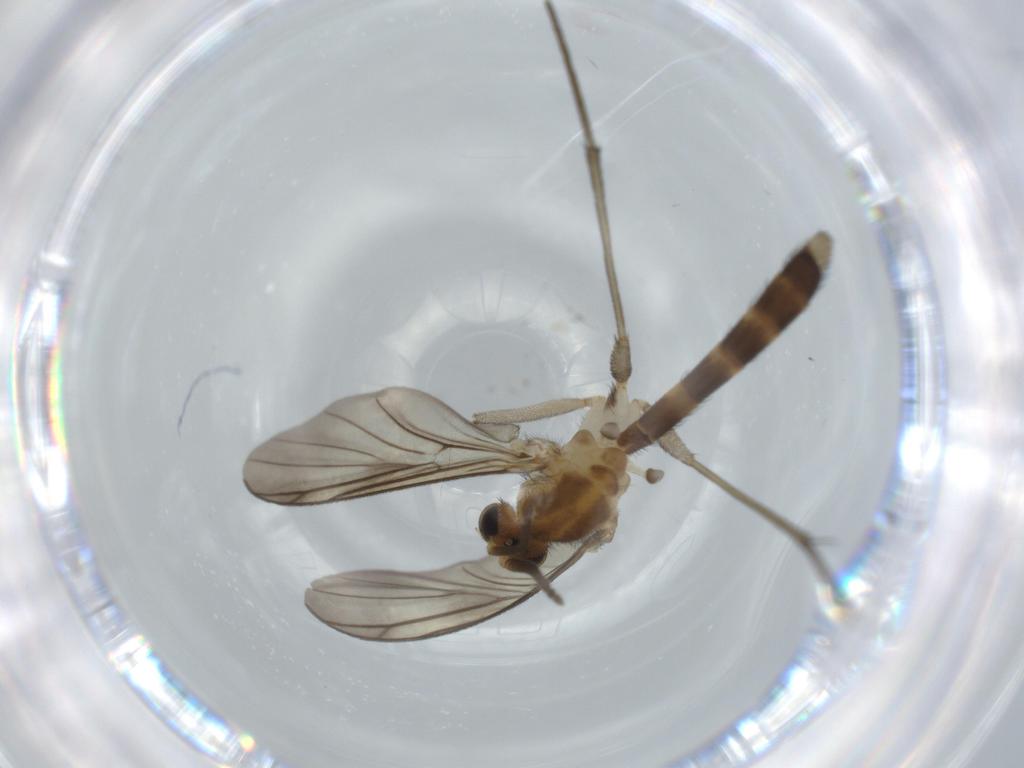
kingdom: Animalia
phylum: Arthropoda
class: Insecta
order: Diptera
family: Mycetophilidae
